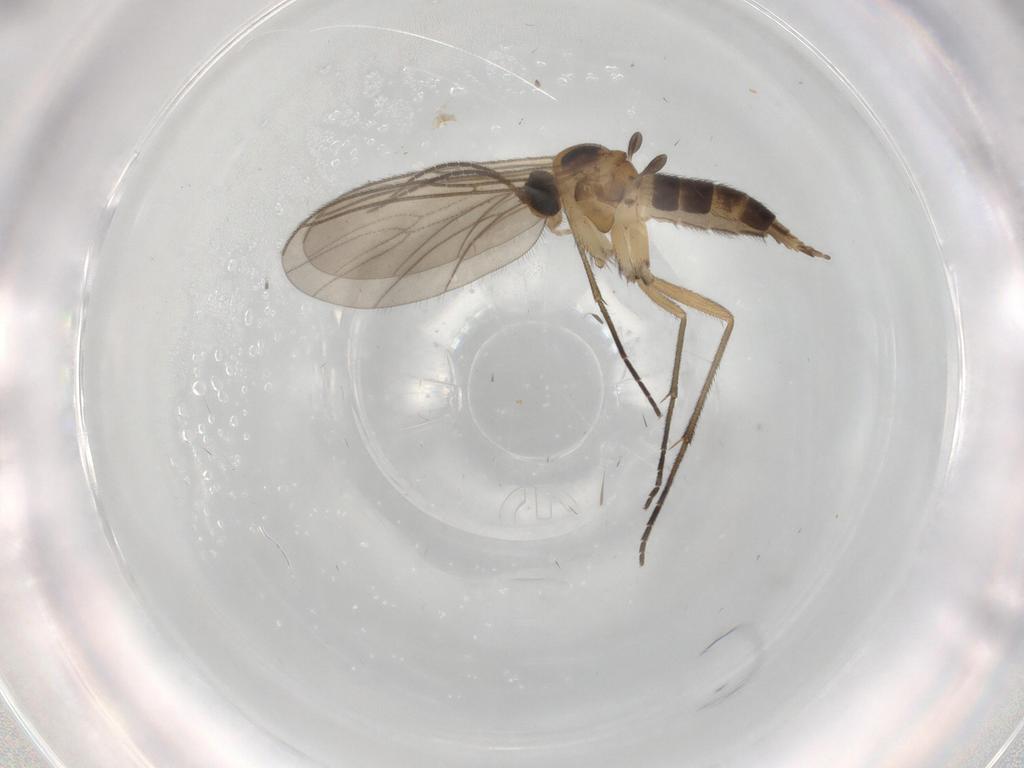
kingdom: Animalia
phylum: Arthropoda
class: Insecta
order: Diptera
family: Sciaridae
